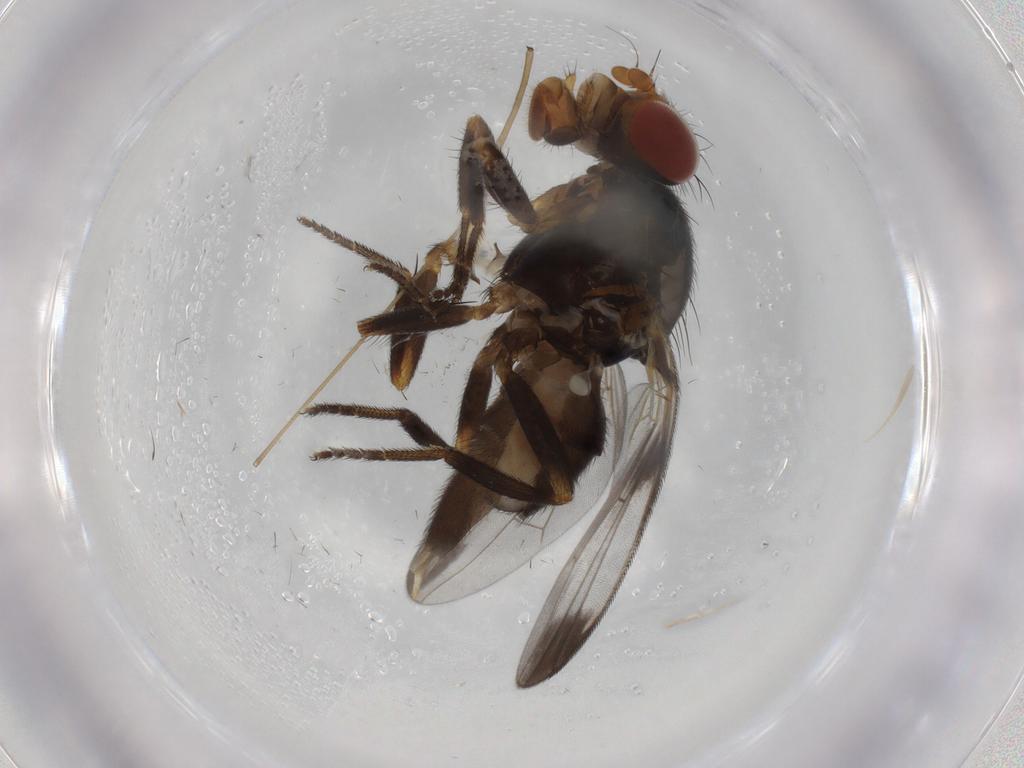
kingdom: Animalia
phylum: Arthropoda
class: Insecta
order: Diptera
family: Ulidiidae
